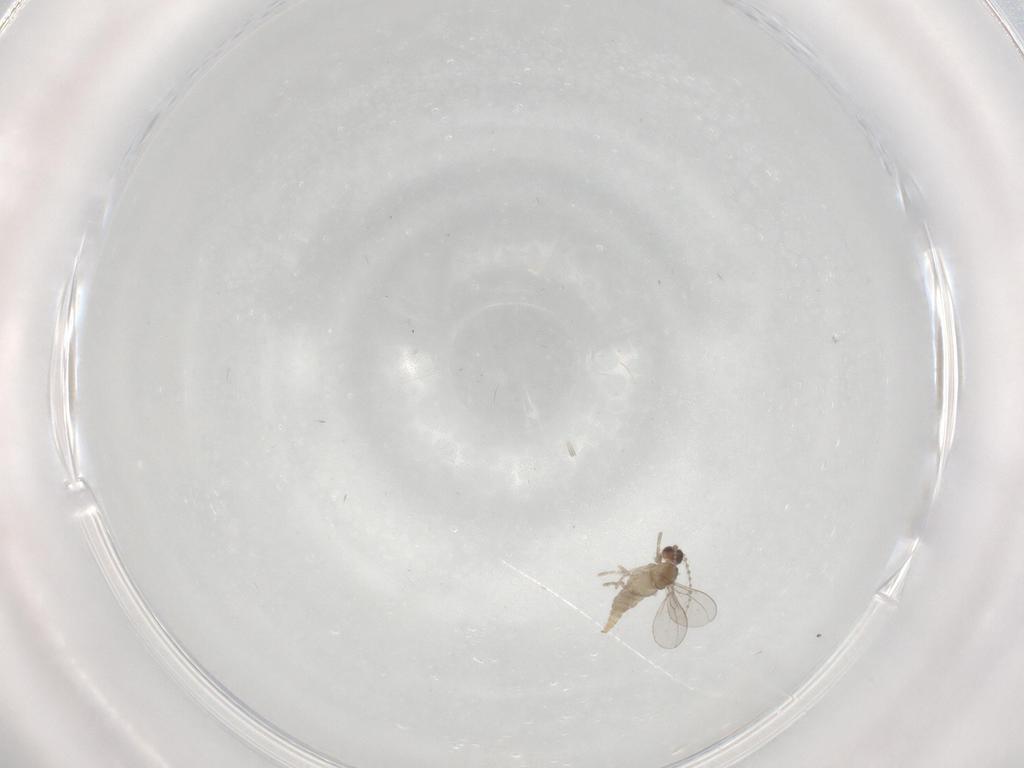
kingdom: Animalia
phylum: Arthropoda
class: Insecta
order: Diptera
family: Cecidomyiidae
